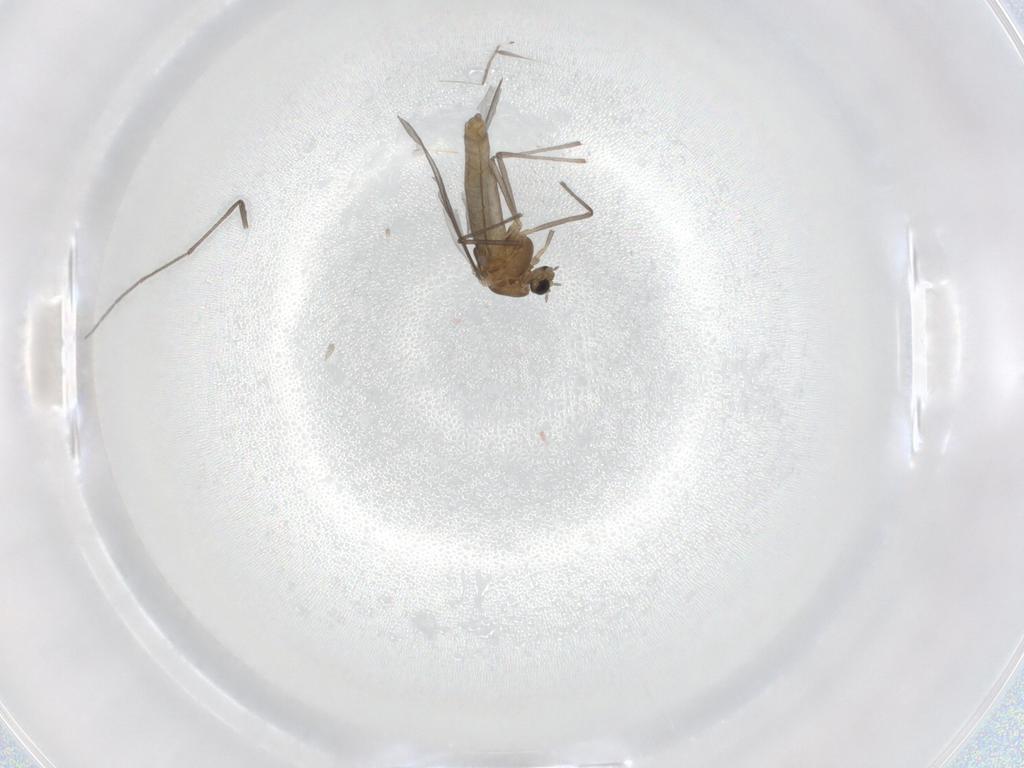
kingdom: Animalia
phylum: Arthropoda
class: Insecta
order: Diptera
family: Chironomidae
